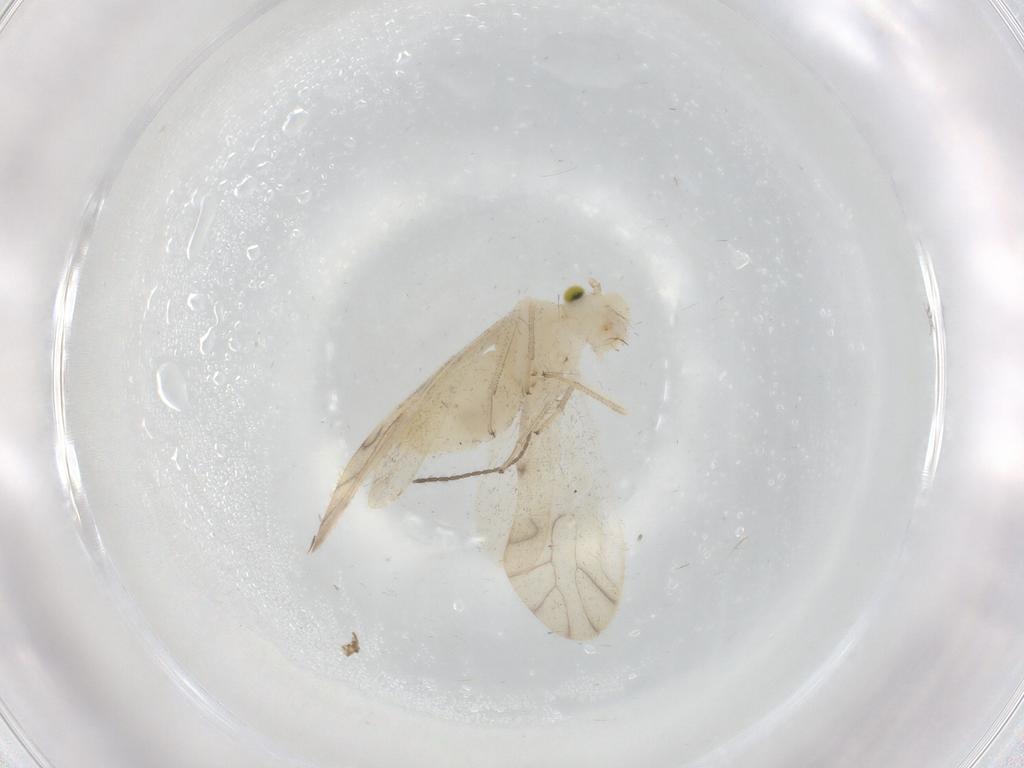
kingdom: Animalia
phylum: Arthropoda
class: Insecta
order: Psocodea
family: Caeciliusidae
